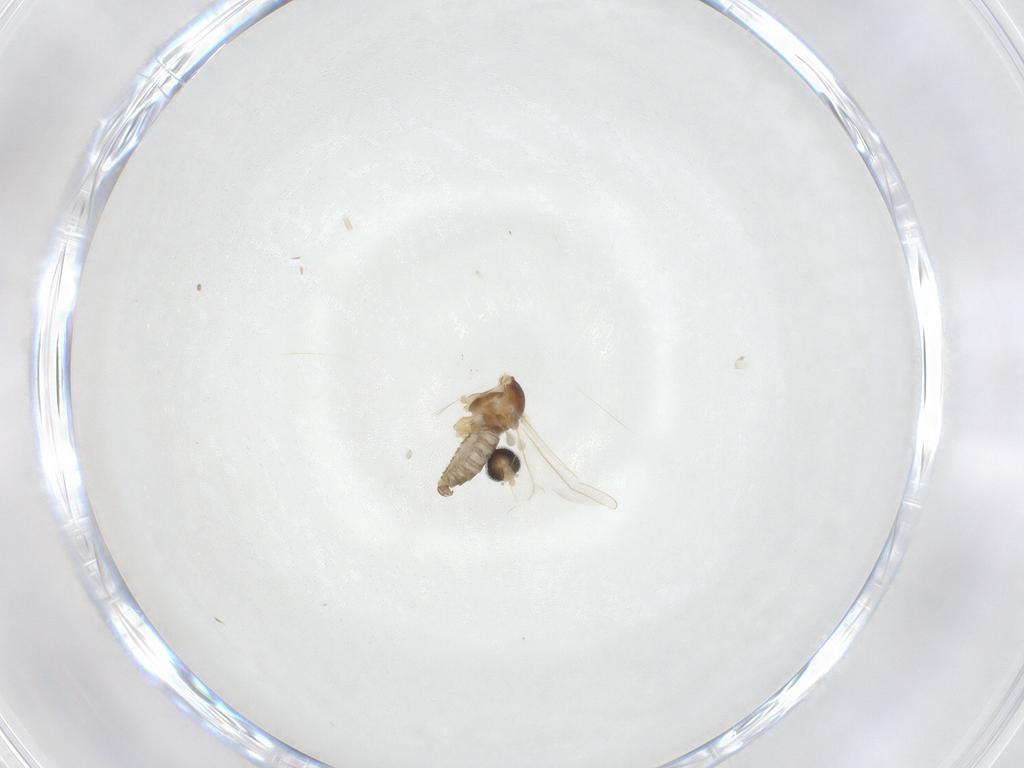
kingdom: Animalia
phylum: Arthropoda
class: Insecta
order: Diptera
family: Cecidomyiidae
